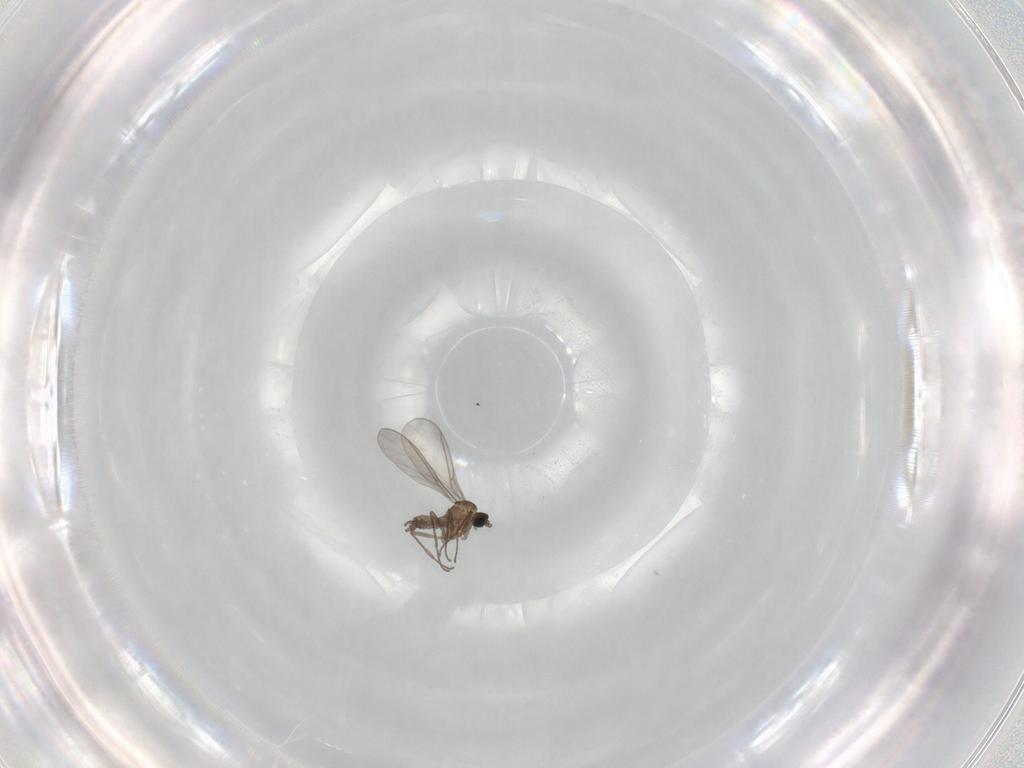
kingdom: Animalia
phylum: Arthropoda
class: Insecta
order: Diptera
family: Sciaridae
